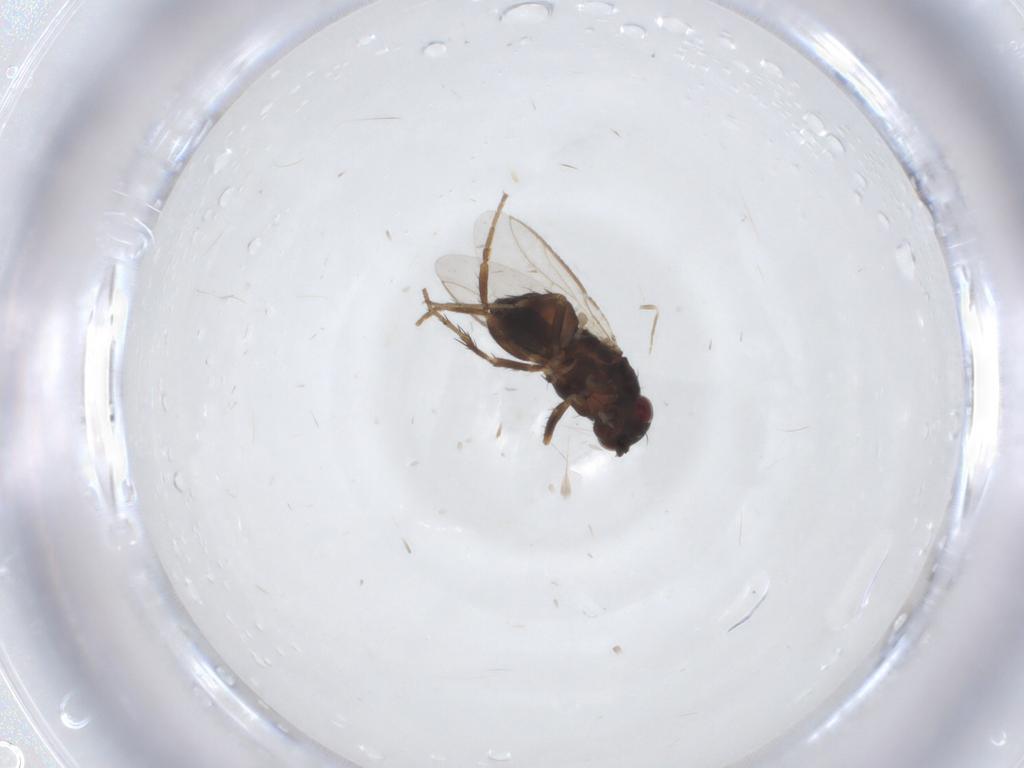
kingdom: Animalia
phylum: Arthropoda
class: Insecta
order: Diptera
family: Sphaeroceridae
